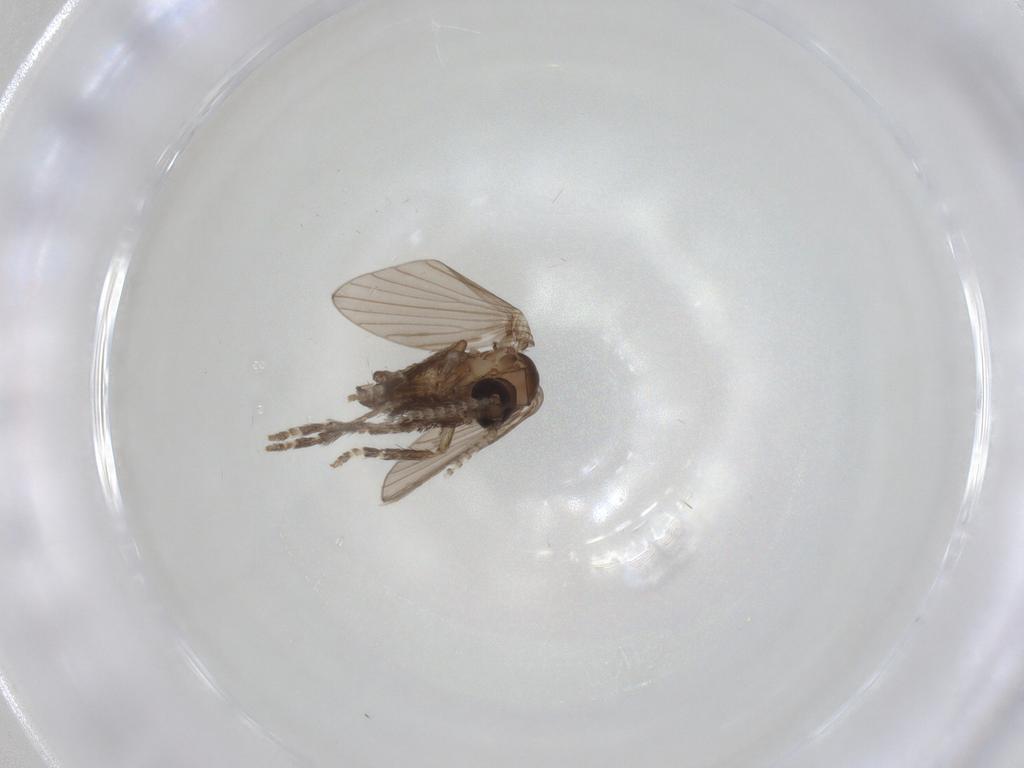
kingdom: Animalia
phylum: Arthropoda
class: Insecta
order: Diptera
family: Psychodidae
